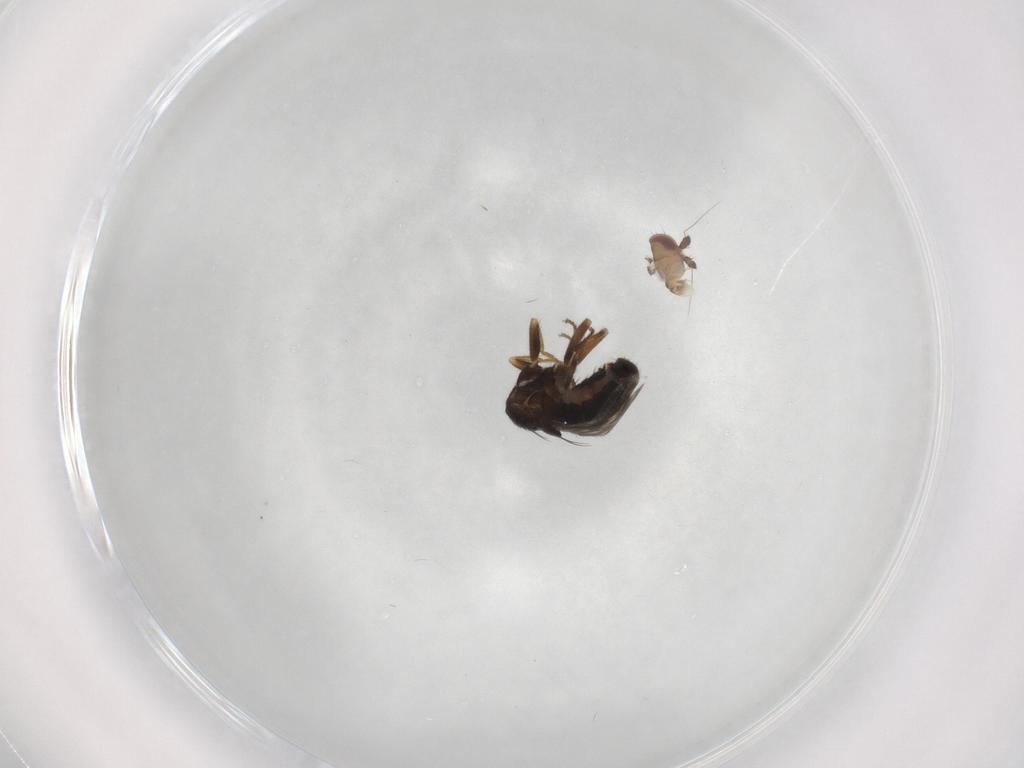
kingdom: Animalia
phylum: Arthropoda
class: Insecta
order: Diptera
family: Sphaeroceridae
